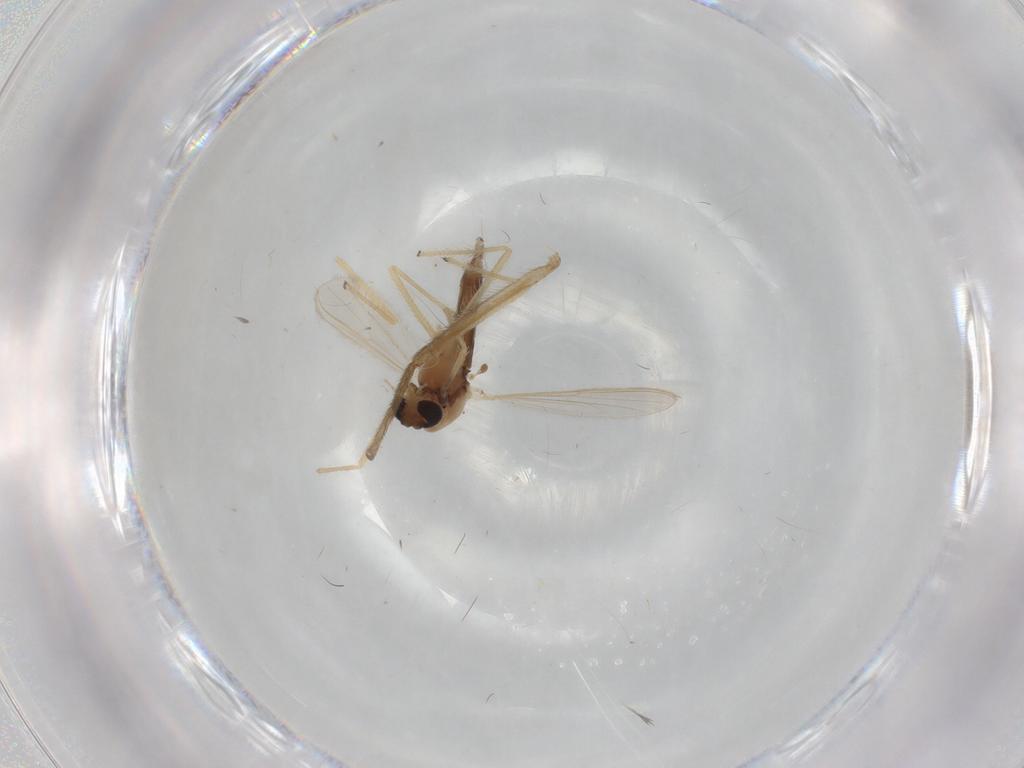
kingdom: Animalia
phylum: Arthropoda
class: Insecta
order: Diptera
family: Chironomidae
